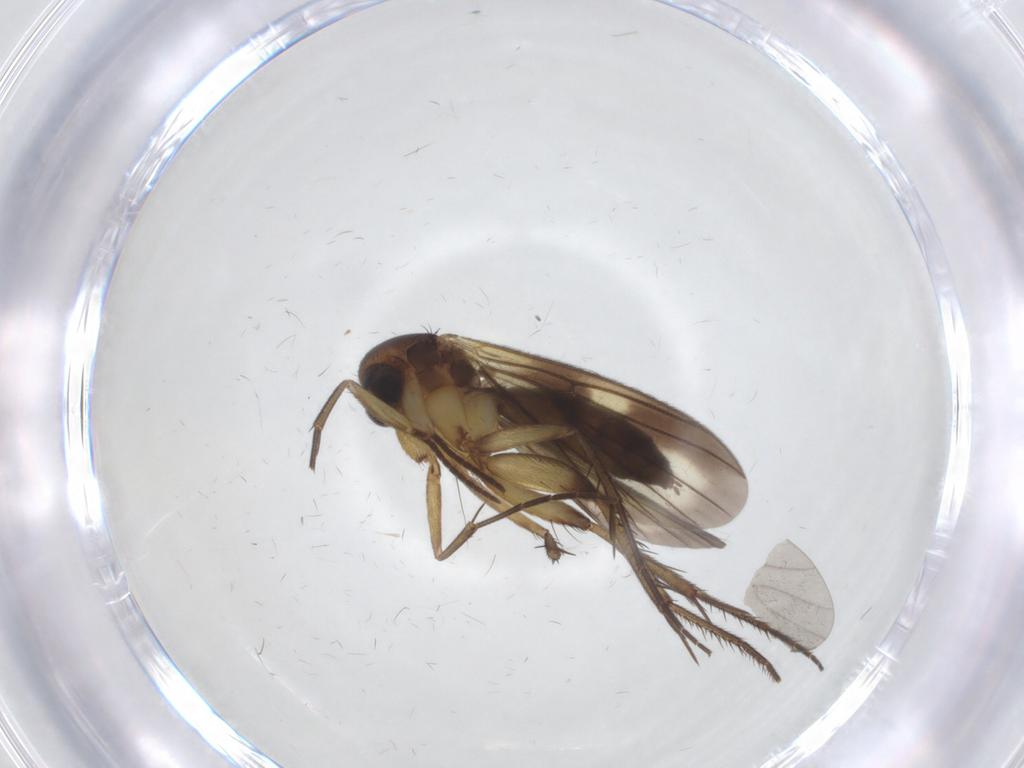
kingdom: Animalia
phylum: Arthropoda
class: Insecta
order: Diptera
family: Mycetophilidae
